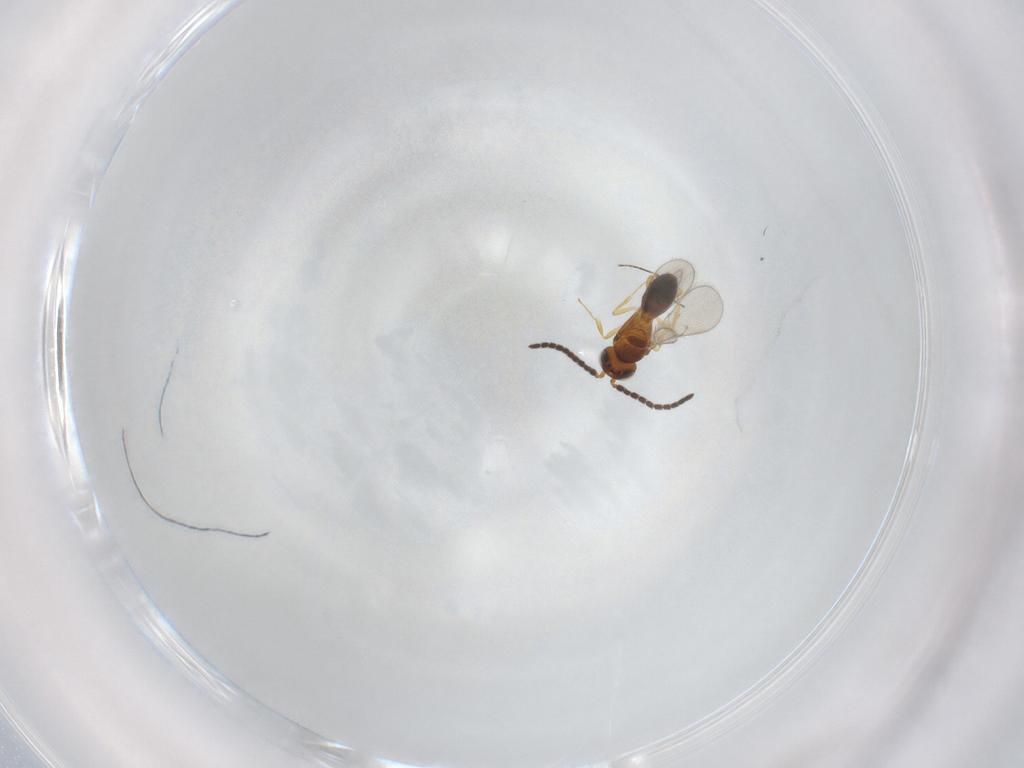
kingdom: Animalia
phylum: Arthropoda
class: Insecta
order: Hymenoptera
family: Scelionidae
